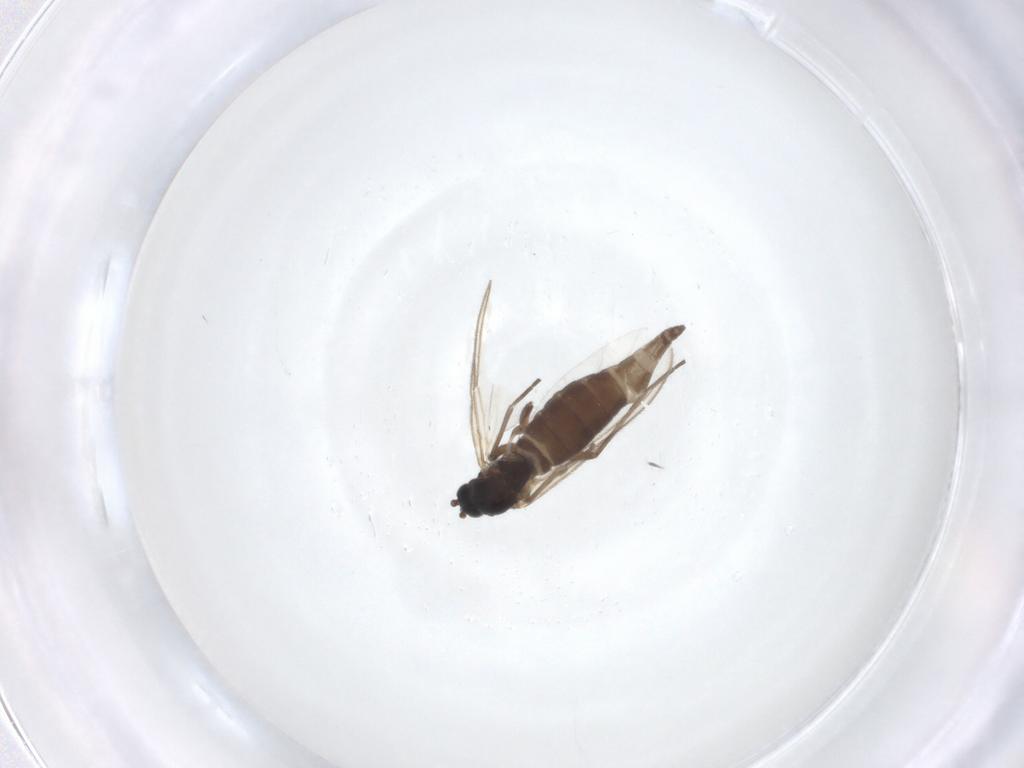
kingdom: Animalia
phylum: Arthropoda
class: Insecta
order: Diptera
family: Sciaridae
